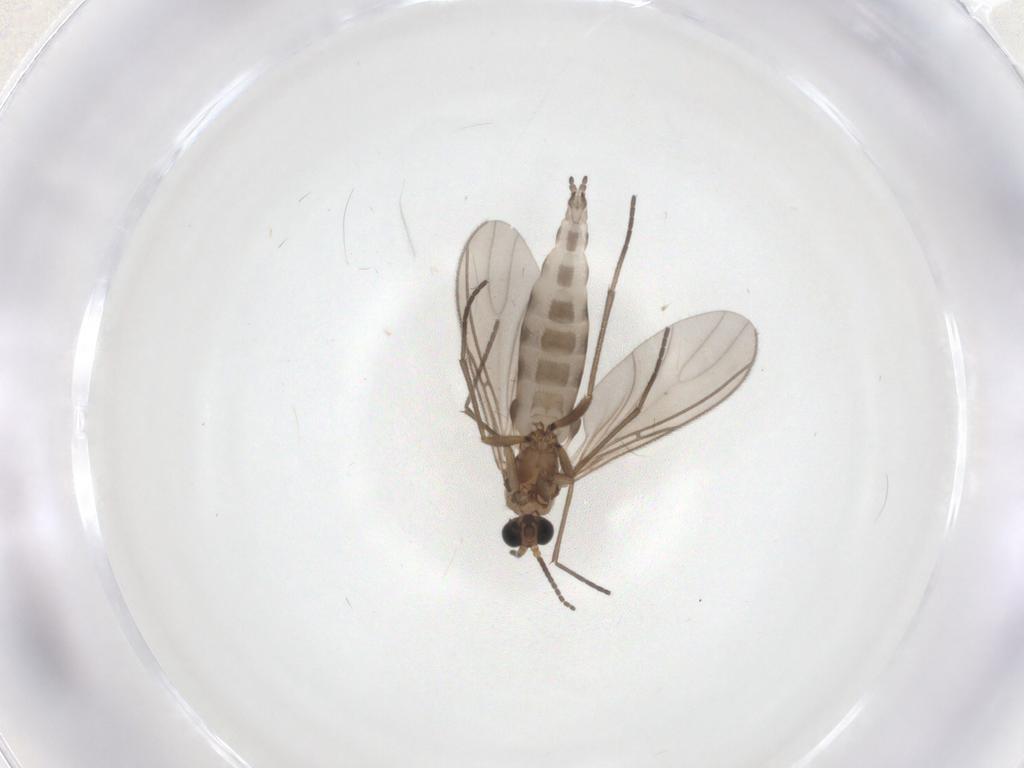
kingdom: Animalia
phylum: Arthropoda
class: Insecta
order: Diptera
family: Sciaridae
